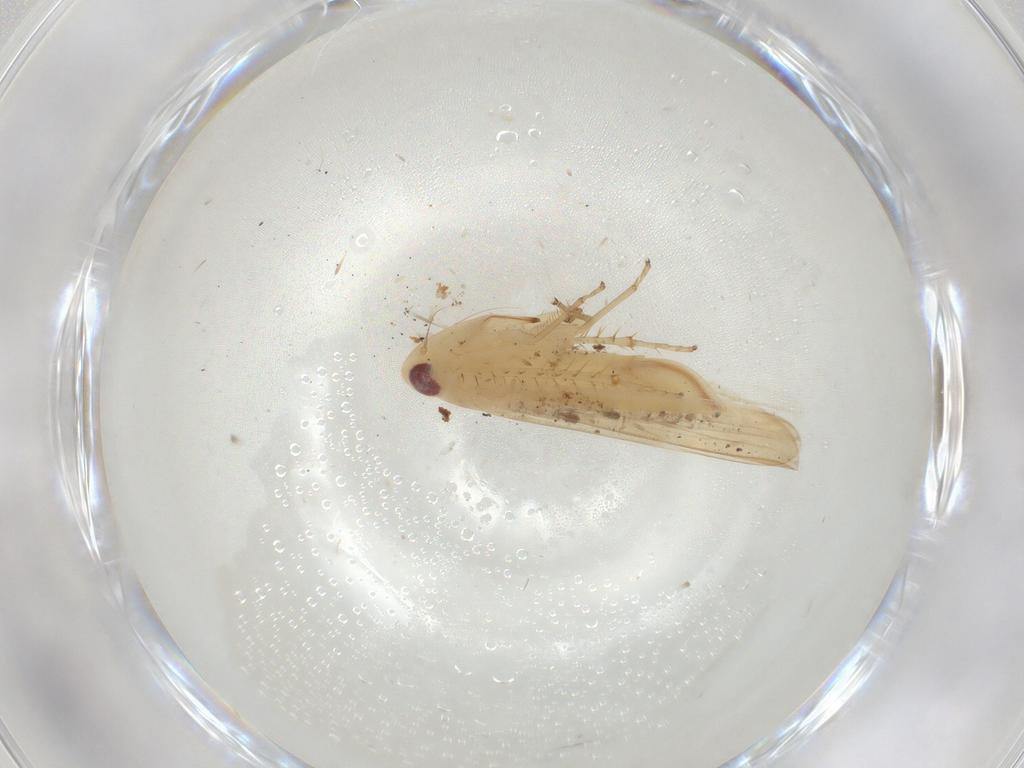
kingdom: Animalia
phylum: Arthropoda
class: Insecta
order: Hemiptera
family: Cicadellidae
